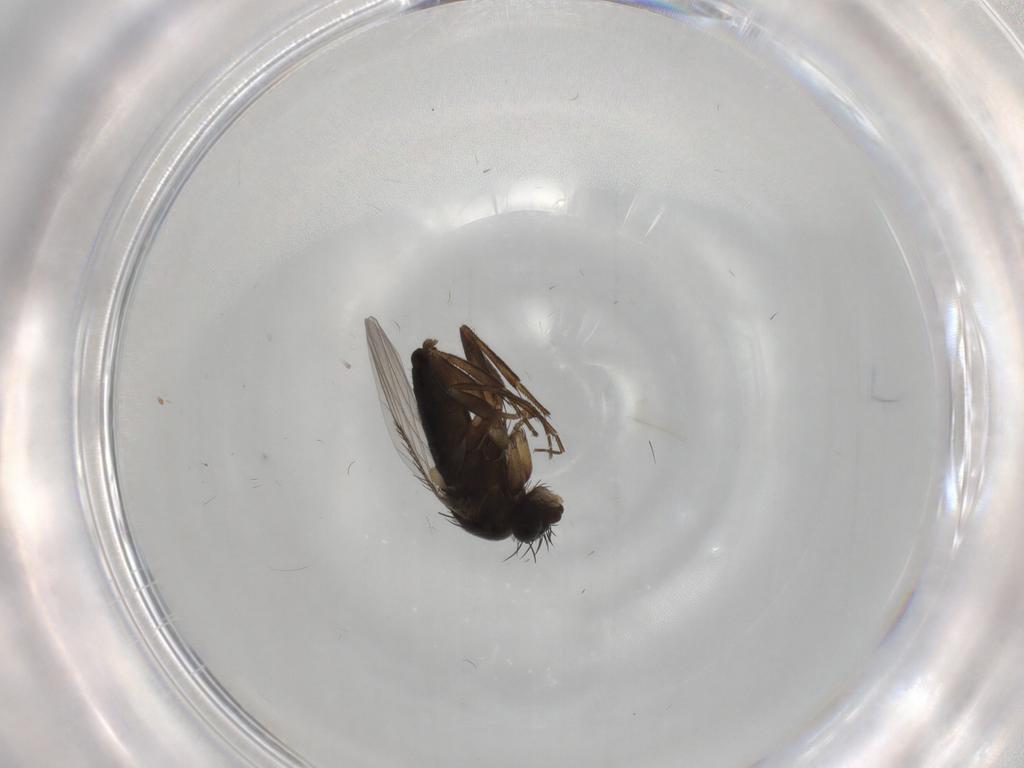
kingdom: Animalia
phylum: Arthropoda
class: Insecta
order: Diptera
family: Phoridae
